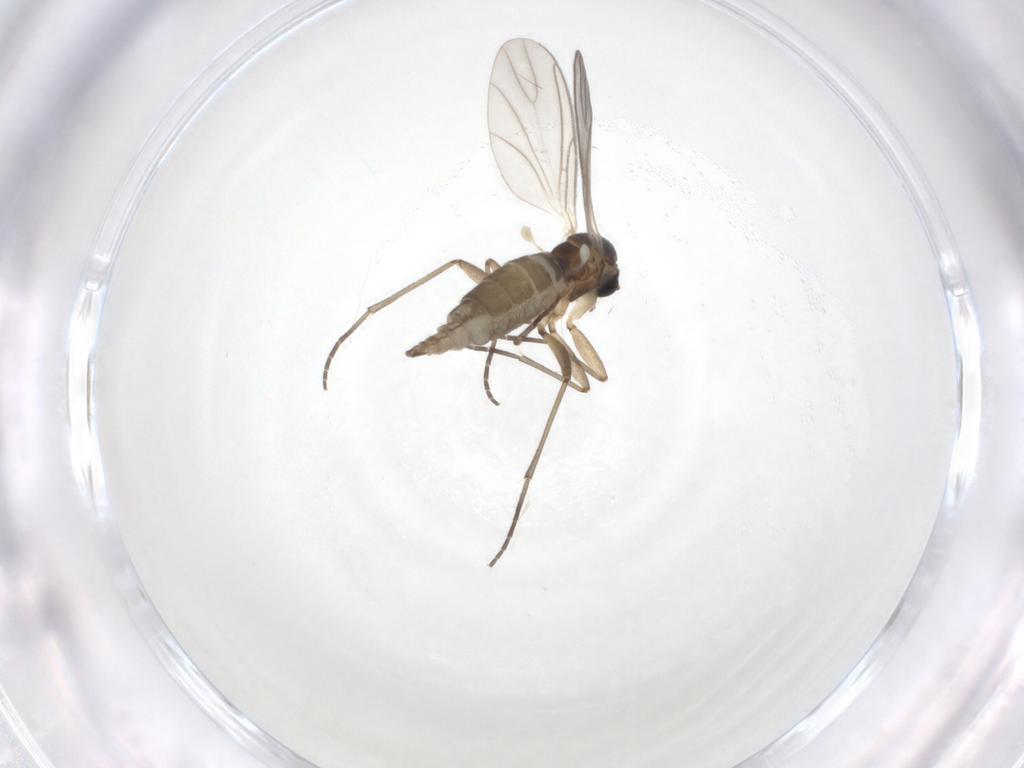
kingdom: Animalia
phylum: Arthropoda
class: Insecta
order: Diptera
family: Cecidomyiidae
